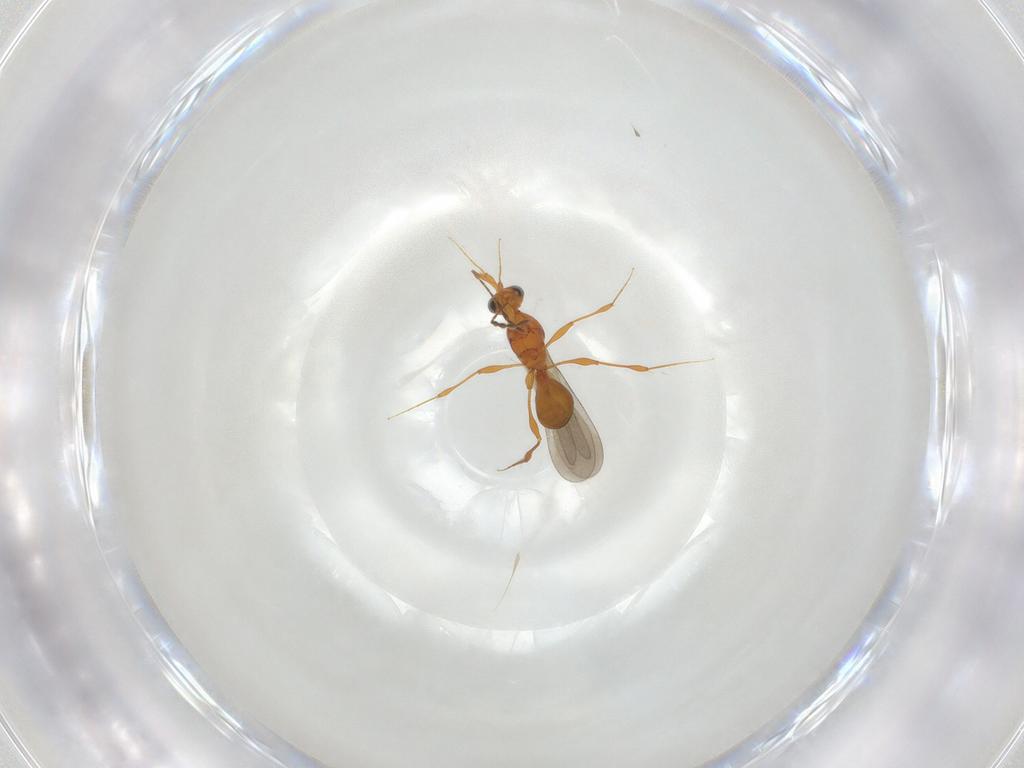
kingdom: Animalia
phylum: Arthropoda
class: Insecta
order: Hymenoptera
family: Platygastridae
